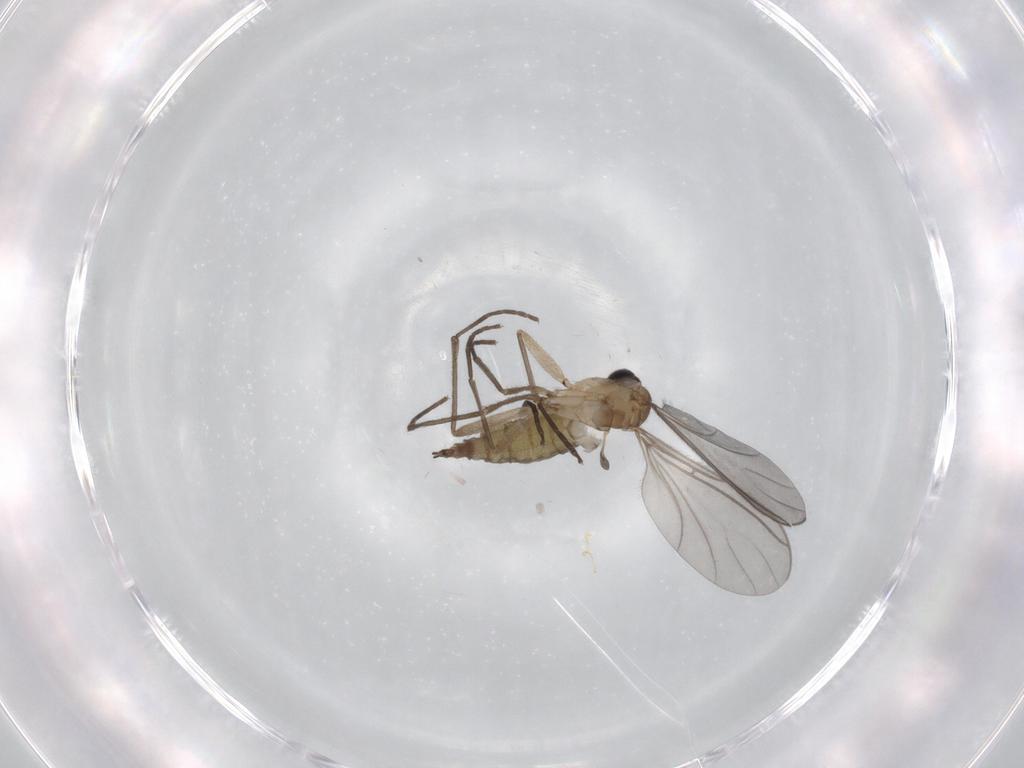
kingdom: Animalia
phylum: Arthropoda
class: Insecta
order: Diptera
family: Sciaridae
